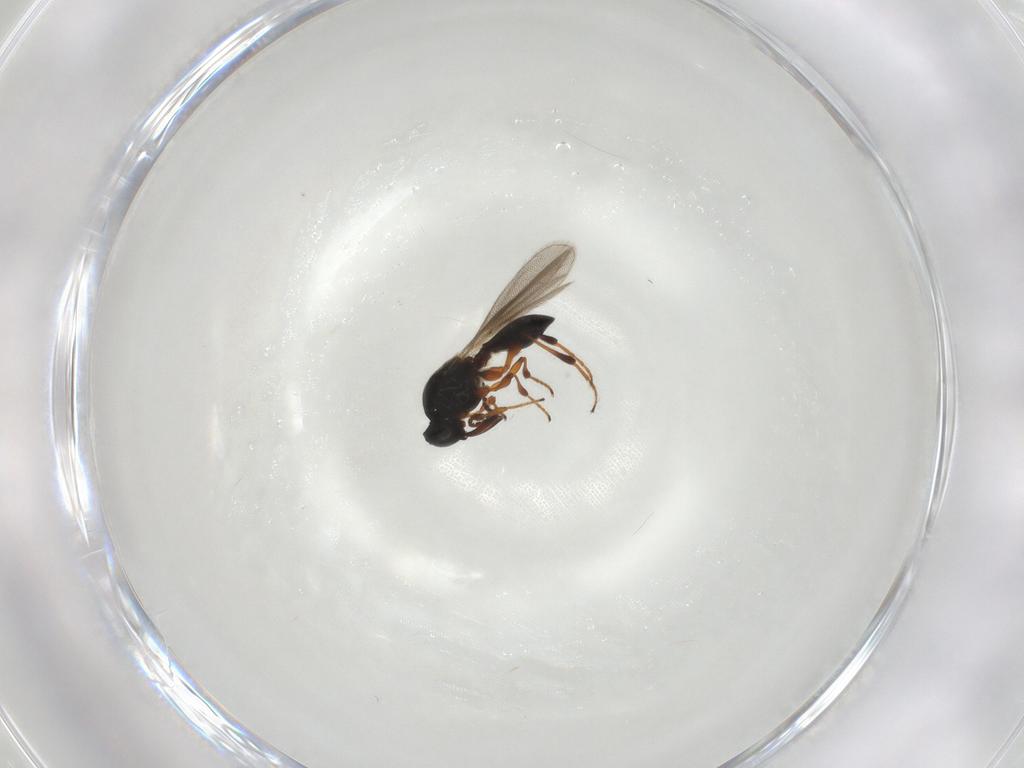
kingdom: Animalia
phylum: Arthropoda
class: Insecta
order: Hymenoptera
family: Platygastridae
